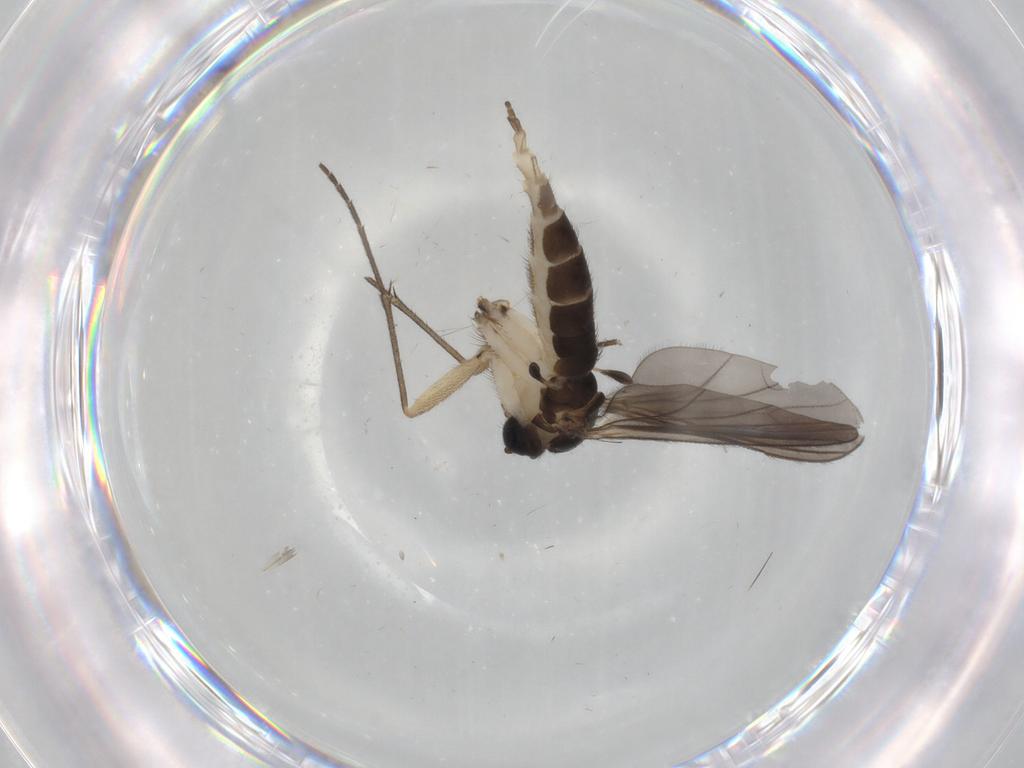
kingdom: Animalia
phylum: Arthropoda
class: Insecta
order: Diptera
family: Sciaridae
